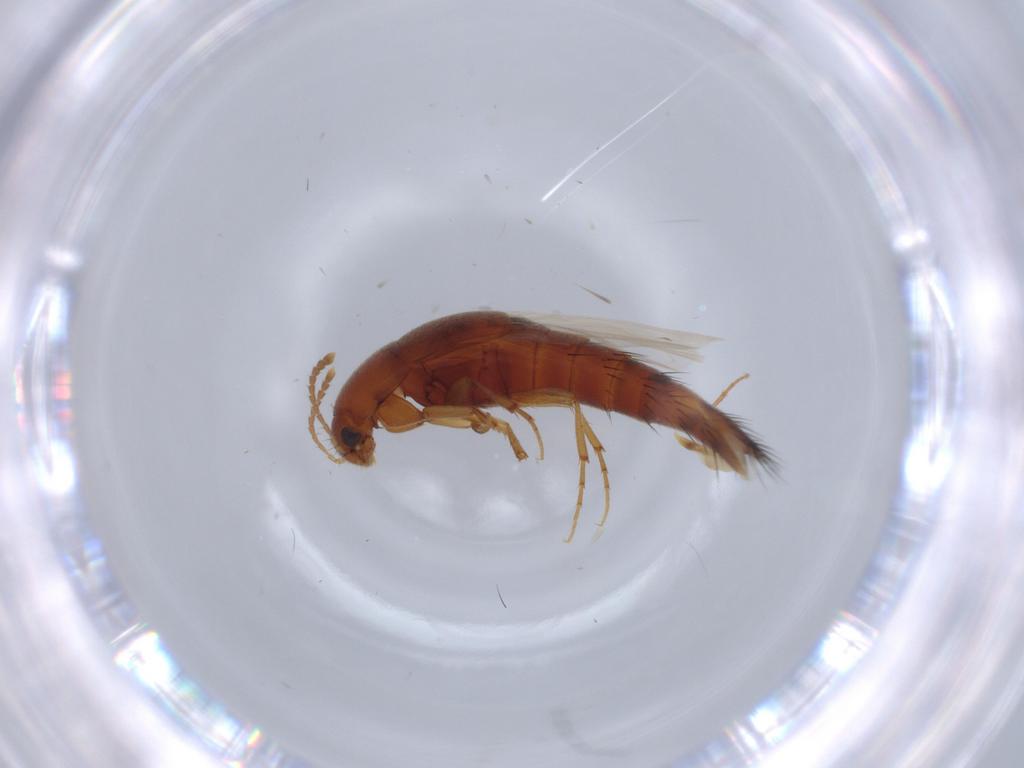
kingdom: Animalia
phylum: Arthropoda
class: Insecta
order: Coleoptera
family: Staphylinidae
